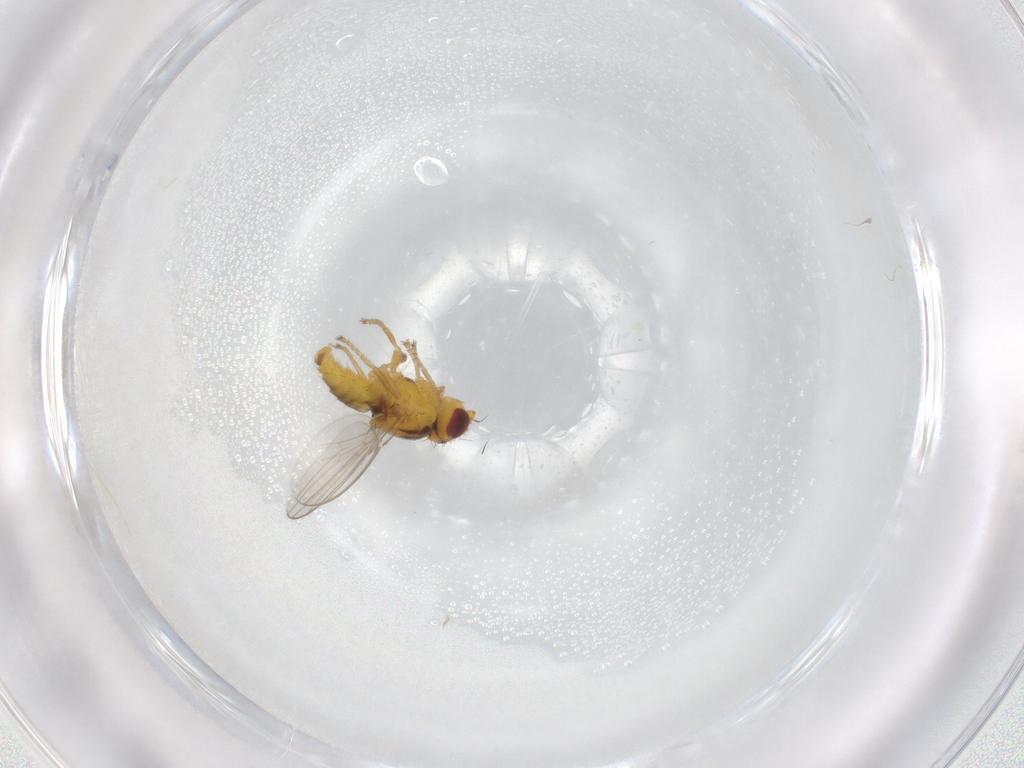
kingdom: Animalia
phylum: Arthropoda
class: Insecta
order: Diptera
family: Chloropidae
